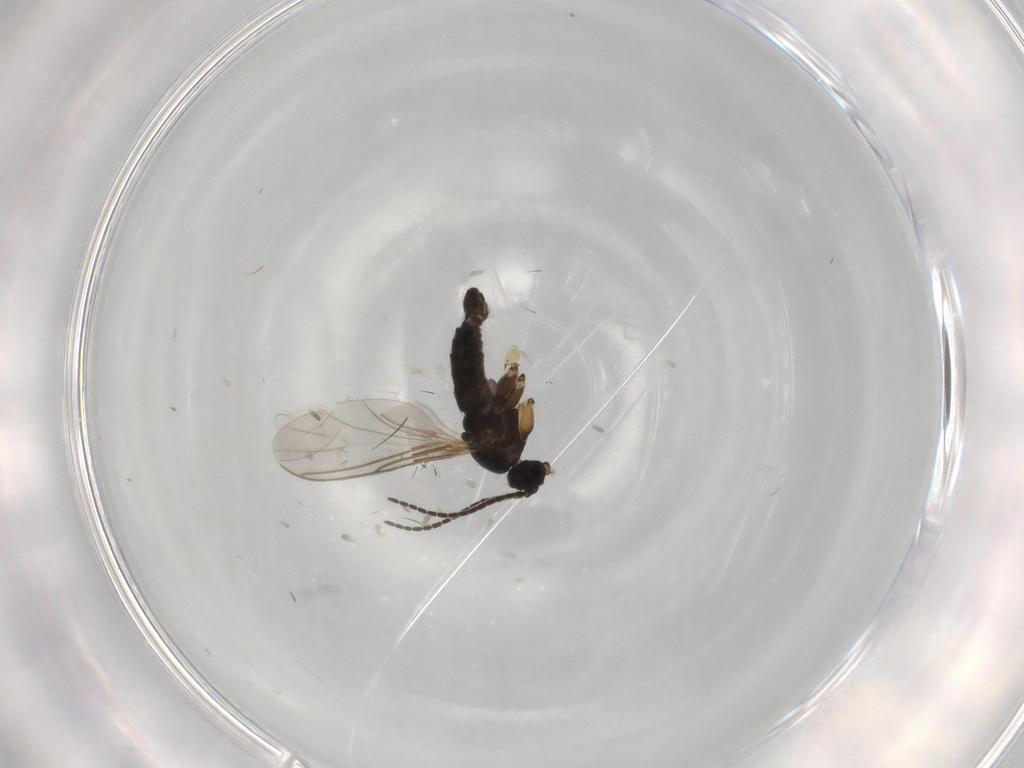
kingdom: Animalia
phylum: Arthropoda
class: Insecta
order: Diptera
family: Sciaridae
